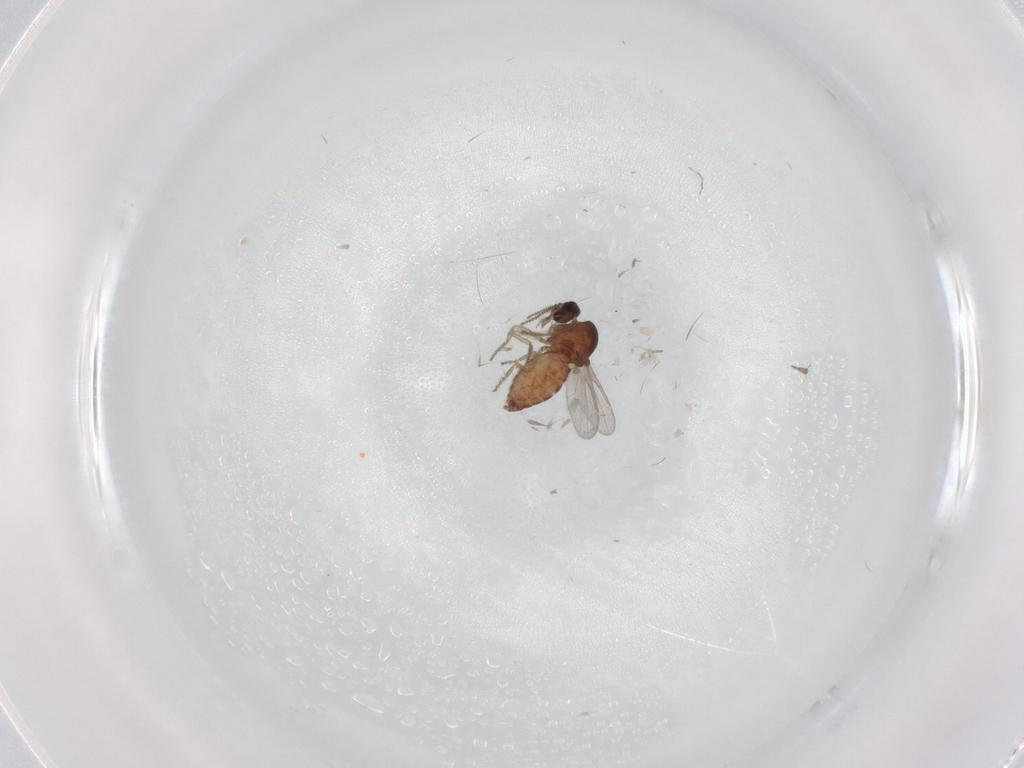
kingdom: Animalia
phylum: Arthropoda
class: Insecta
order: Diptera
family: Ceratopogonidae
